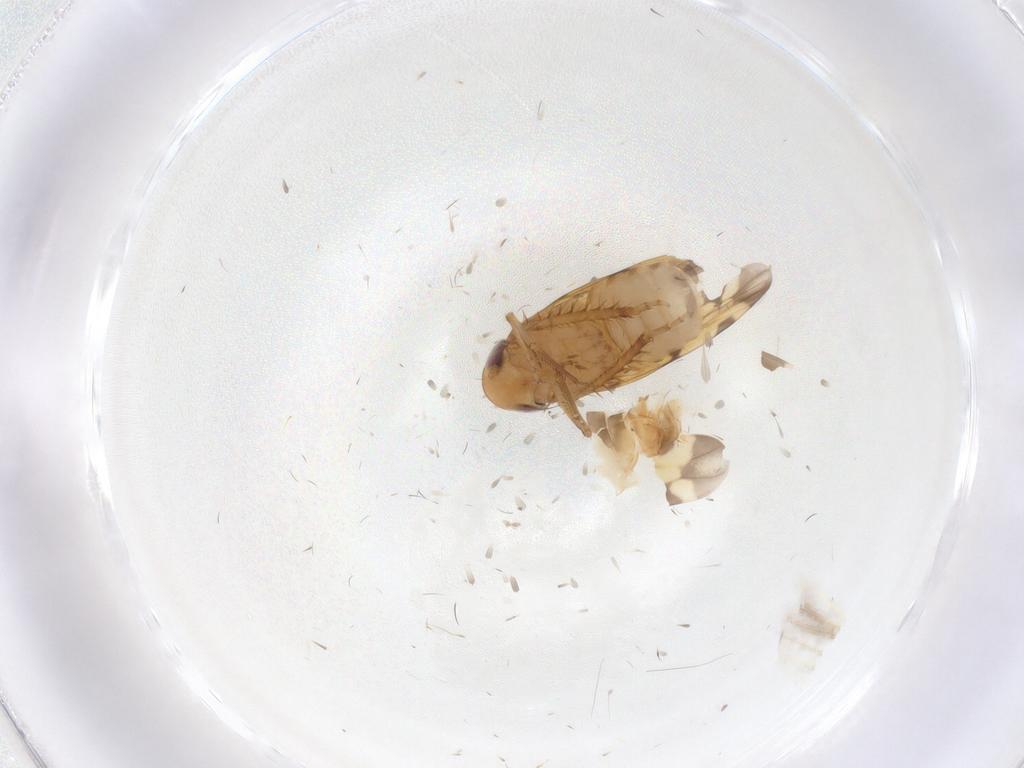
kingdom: Animalia
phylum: Arthropoda
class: Insecta
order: Hemiptera
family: Cicadellidae
